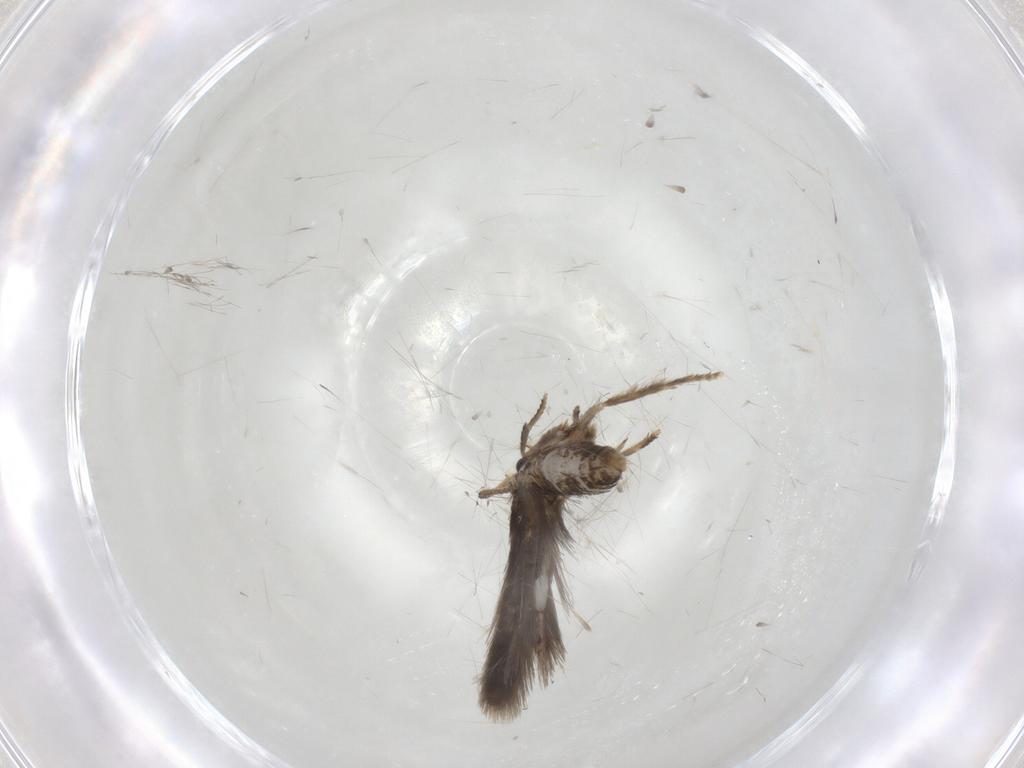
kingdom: Animalia
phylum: Arthropoda
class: Insecta
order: Lepidoptera
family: Nepticulidae
